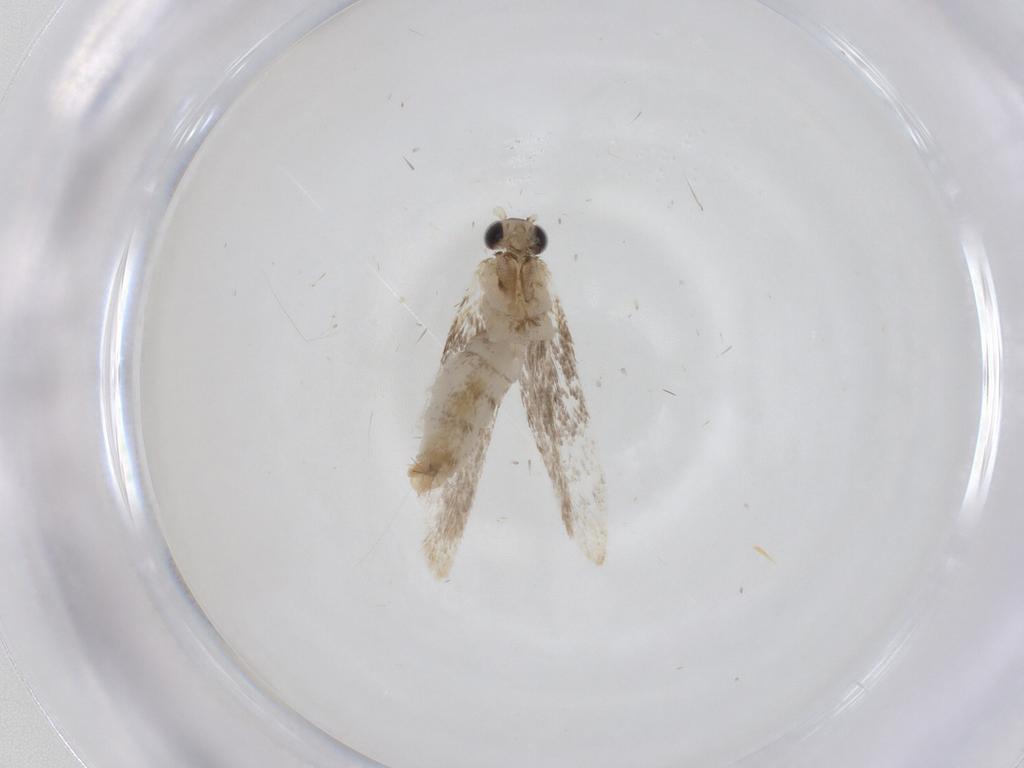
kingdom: Animalia
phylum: Arthropoda
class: Insecta
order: Lepidoptera
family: Dryadaulidae
